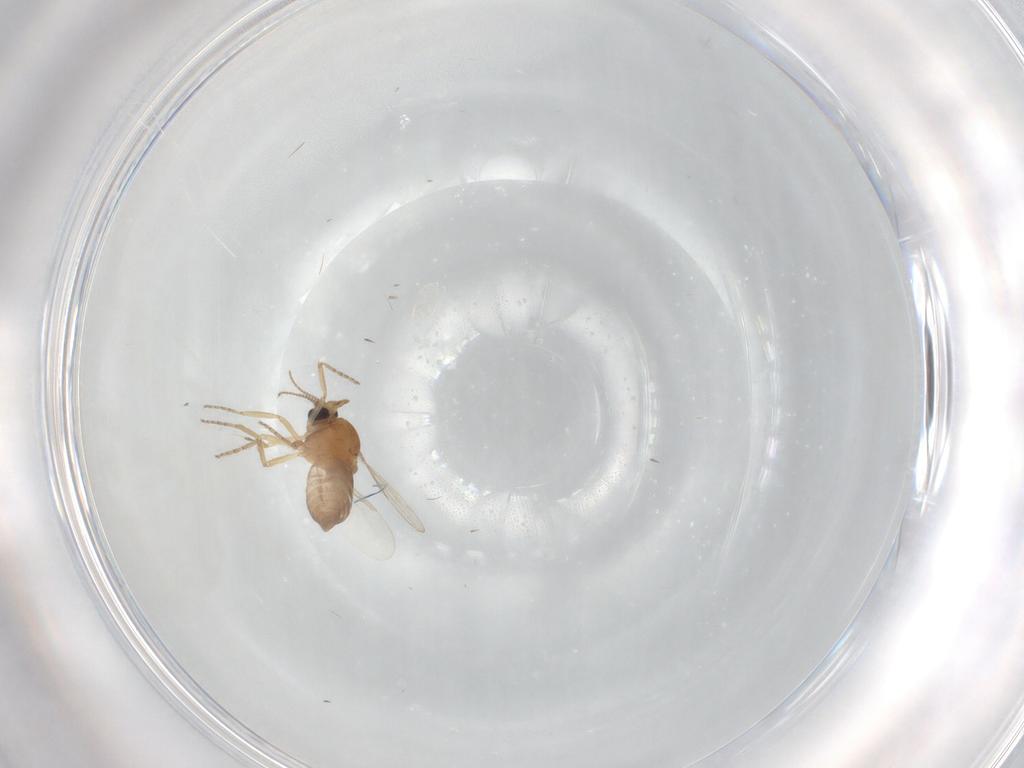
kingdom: Animalia
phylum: Arthropoda
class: Insecta
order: Diptera
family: Ceratopogonidae
